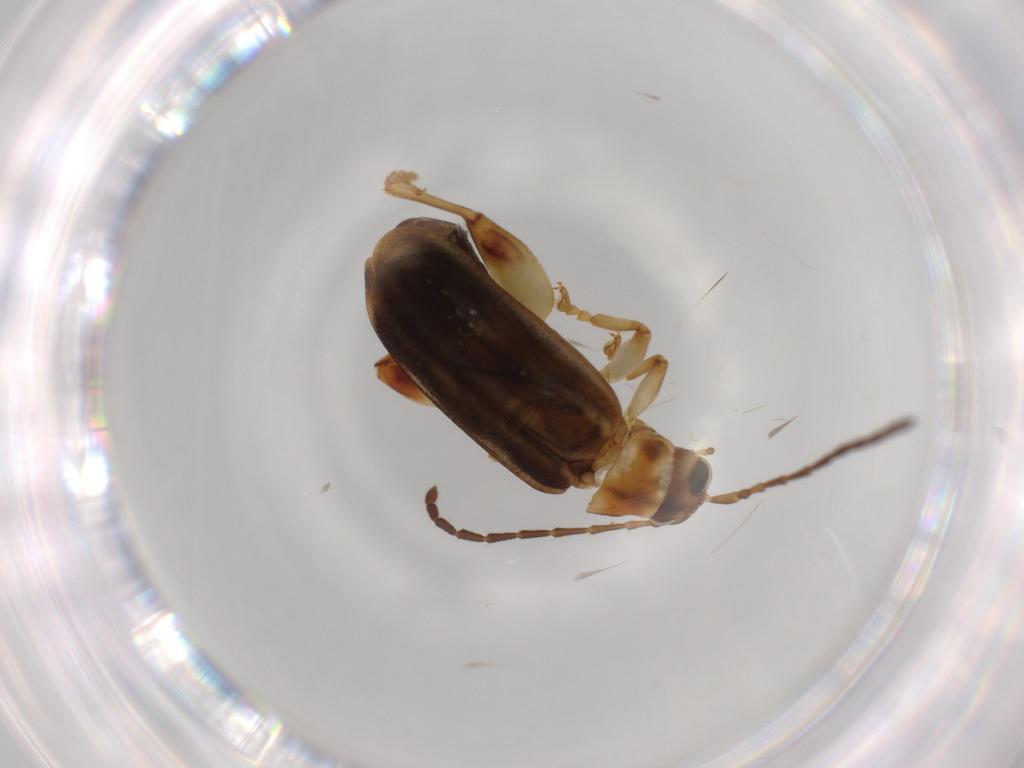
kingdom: Animalia
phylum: Arthropoda
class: Insecta
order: Coleoptera
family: Chrysomelidae
